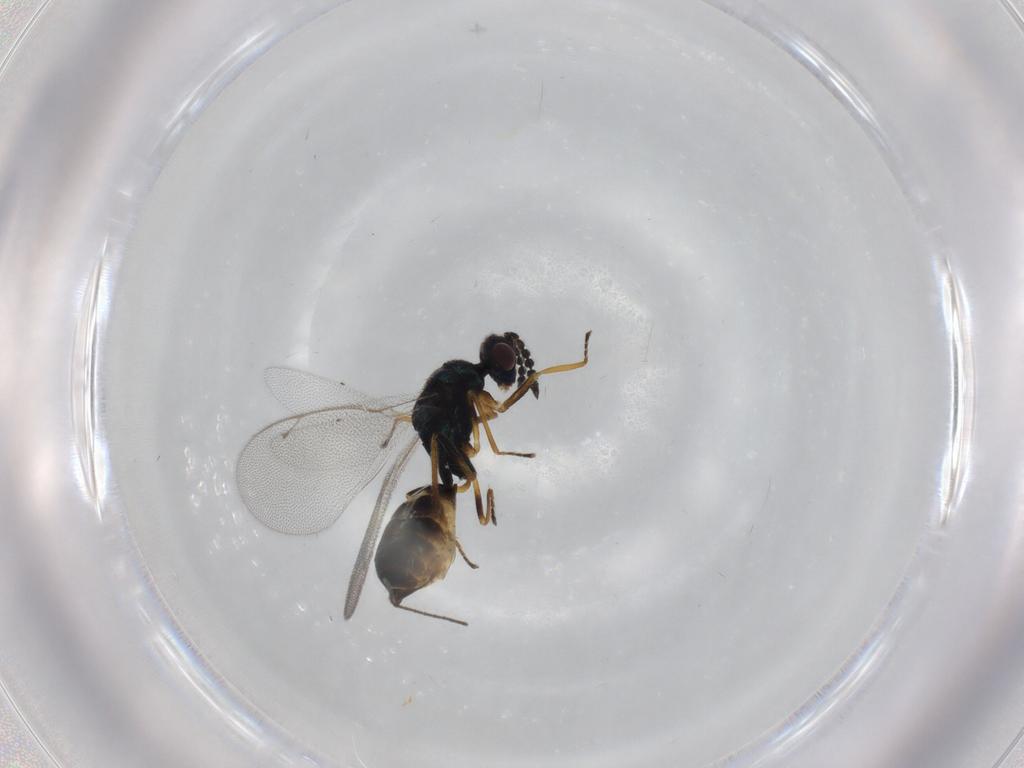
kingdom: Animalia
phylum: Arthropoda
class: Insecta
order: Hymenoptera
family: Eulophidae
